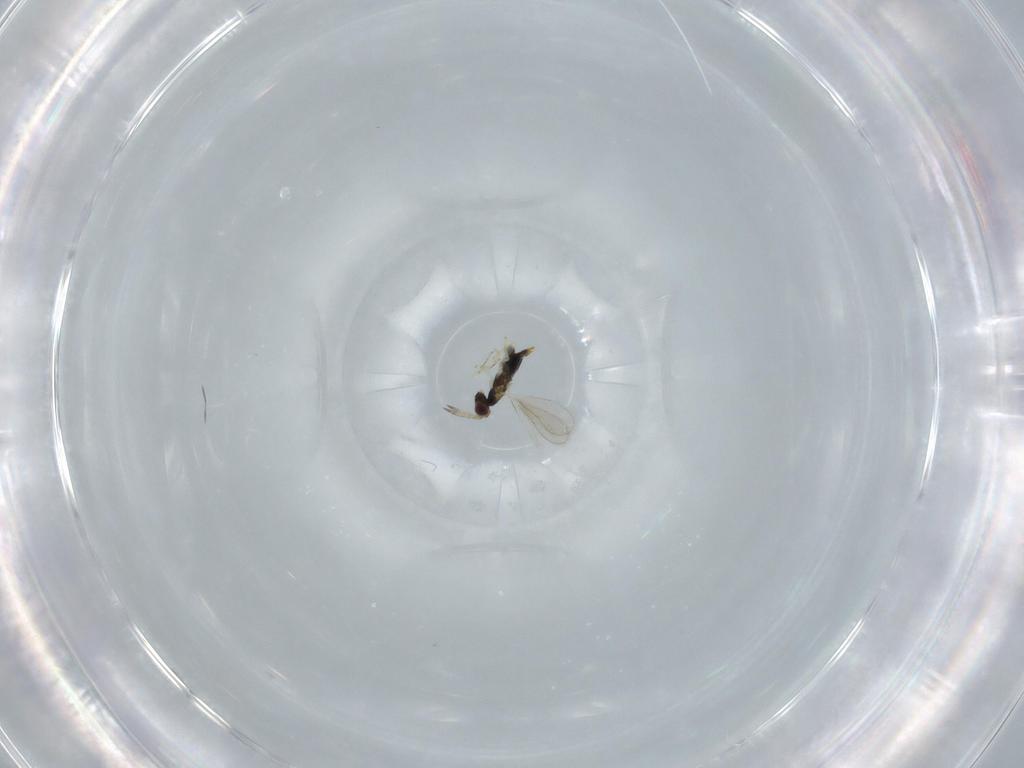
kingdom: Animalia
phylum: Arthropoda
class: Insecta
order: Hymenoptera
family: Aphelinidae
